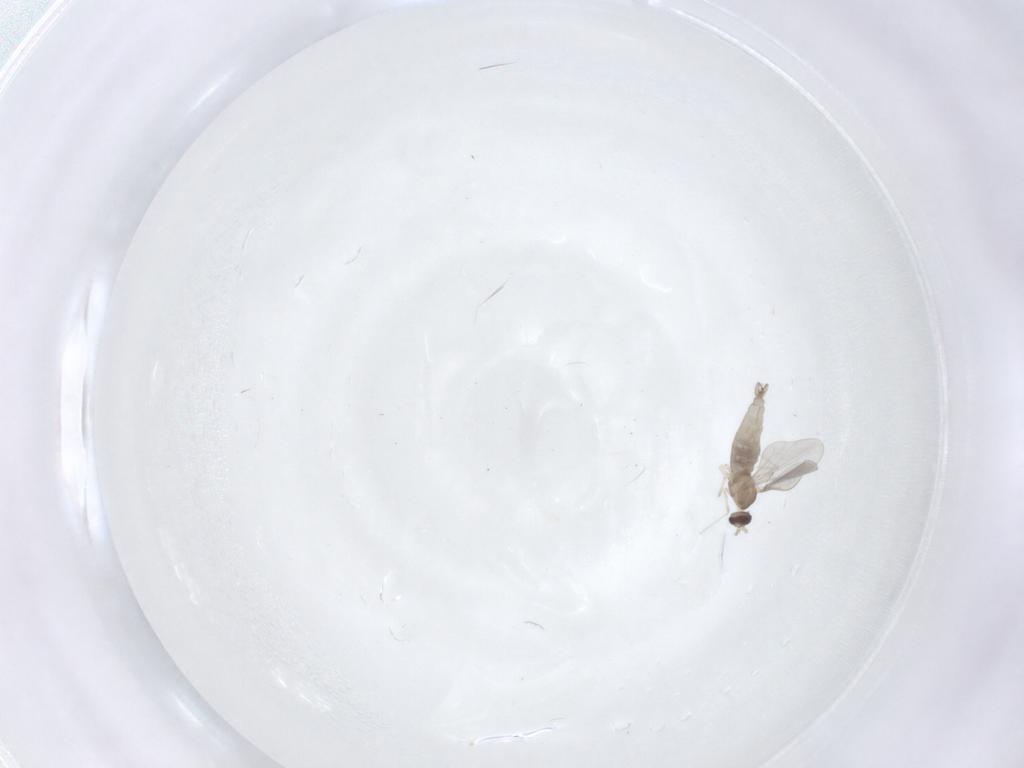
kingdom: Animalia
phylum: Arthropoda
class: Insecta
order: Diptera
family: Cecidomyiidae
